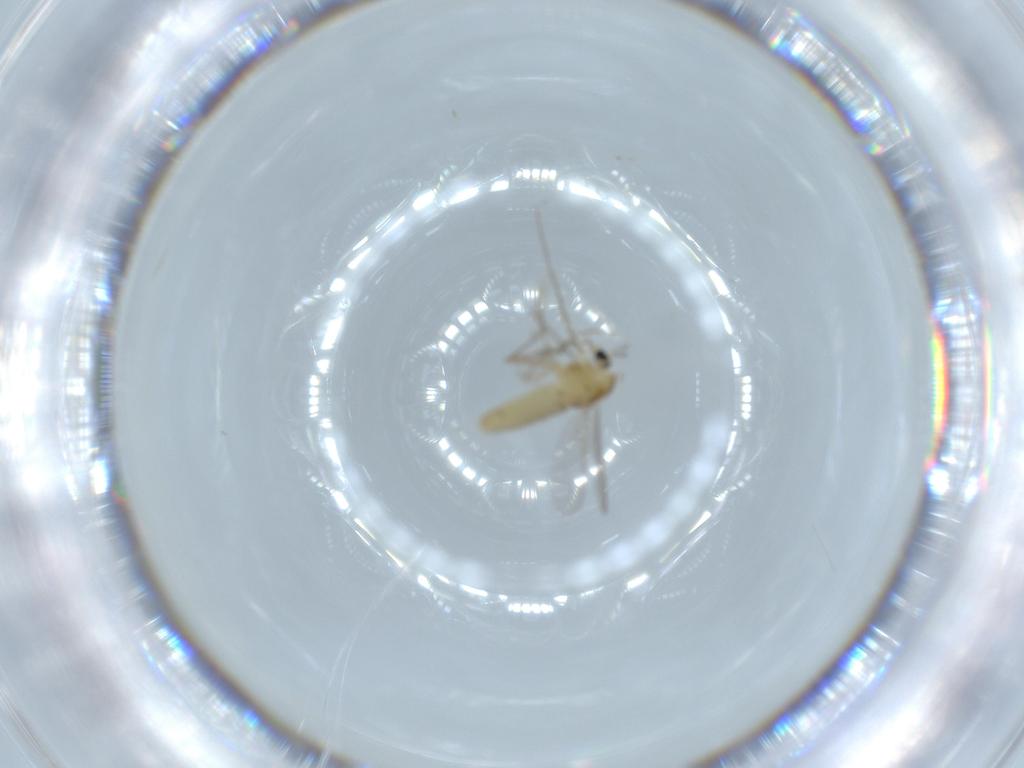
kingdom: Animalia
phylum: Arthropoda
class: Insecta
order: Diptera
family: Chironomidae
